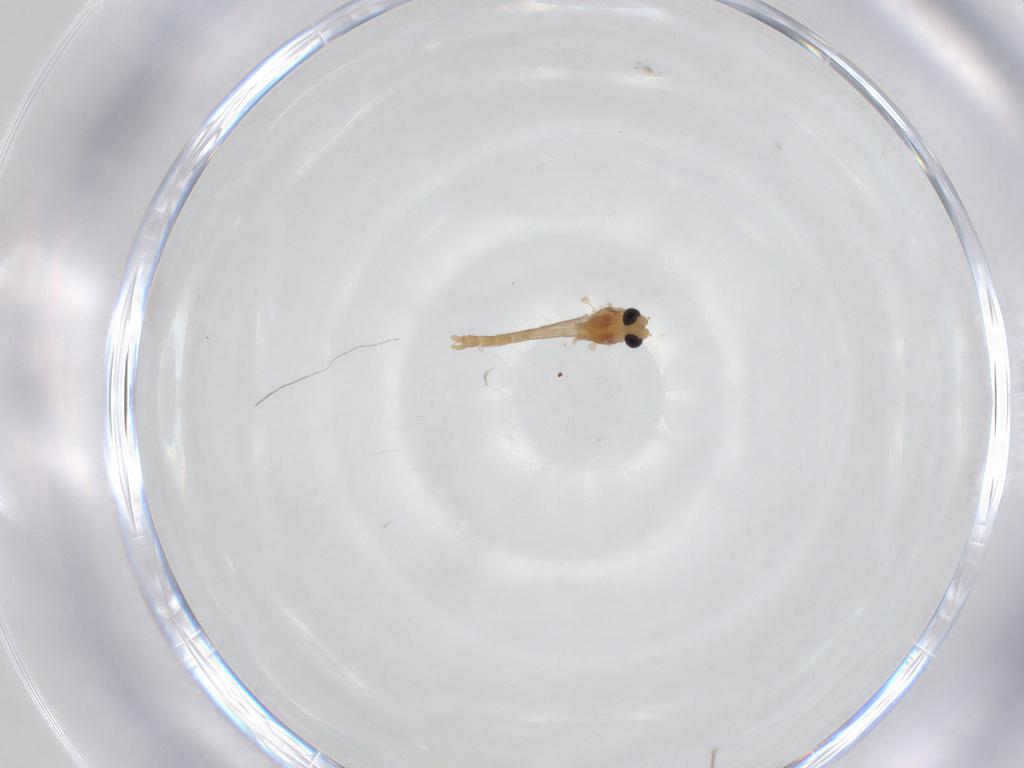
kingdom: Animalia
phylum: Arthropoda
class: Insecta
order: Diptera
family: Chironomidae
